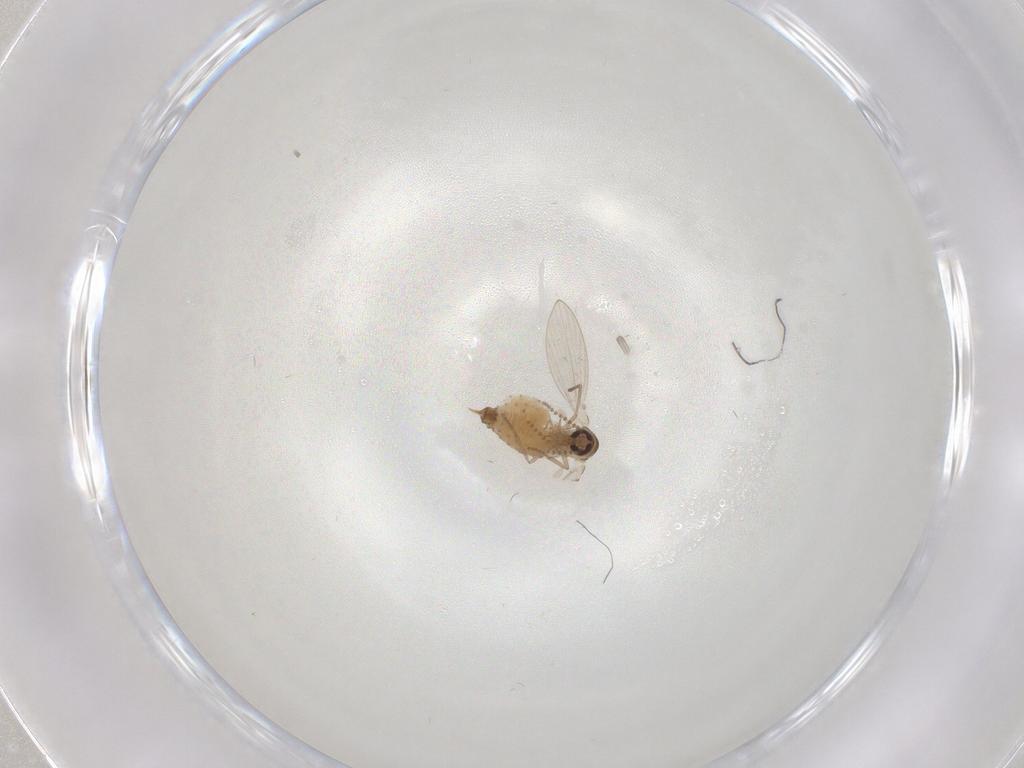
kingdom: Animalia
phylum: Arthropoda
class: Insecta
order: Diptera
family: Psychodidae
